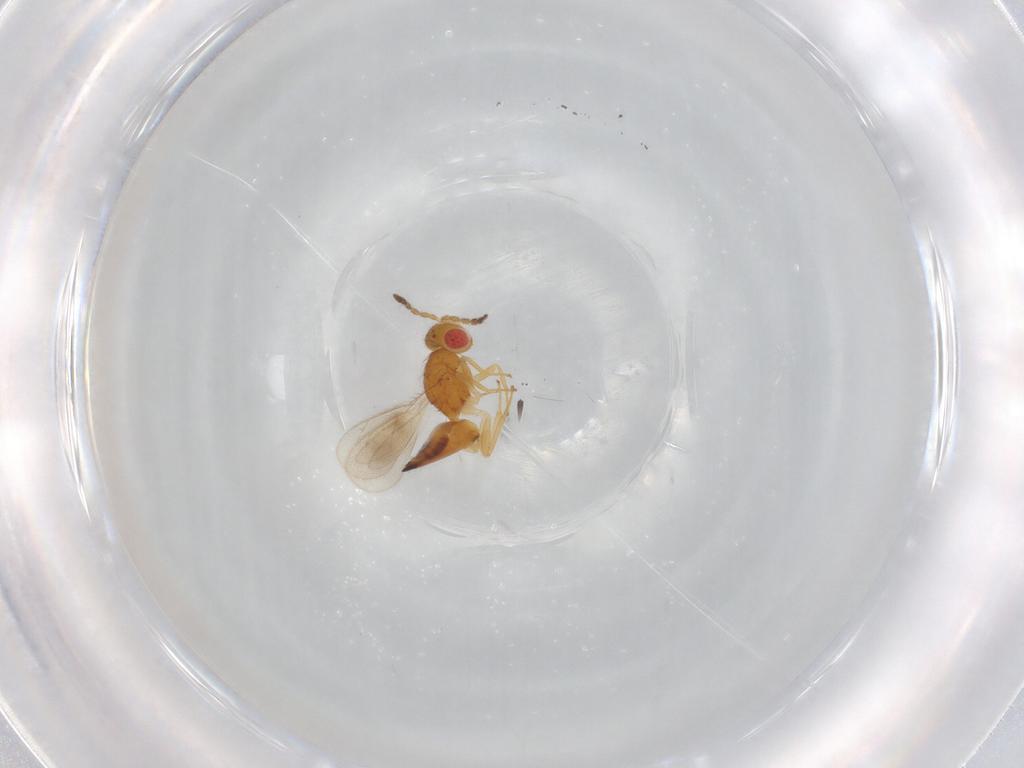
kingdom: Animalia
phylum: Arthropoda
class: Insecta
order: Hymenoptera
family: Eulophidae
